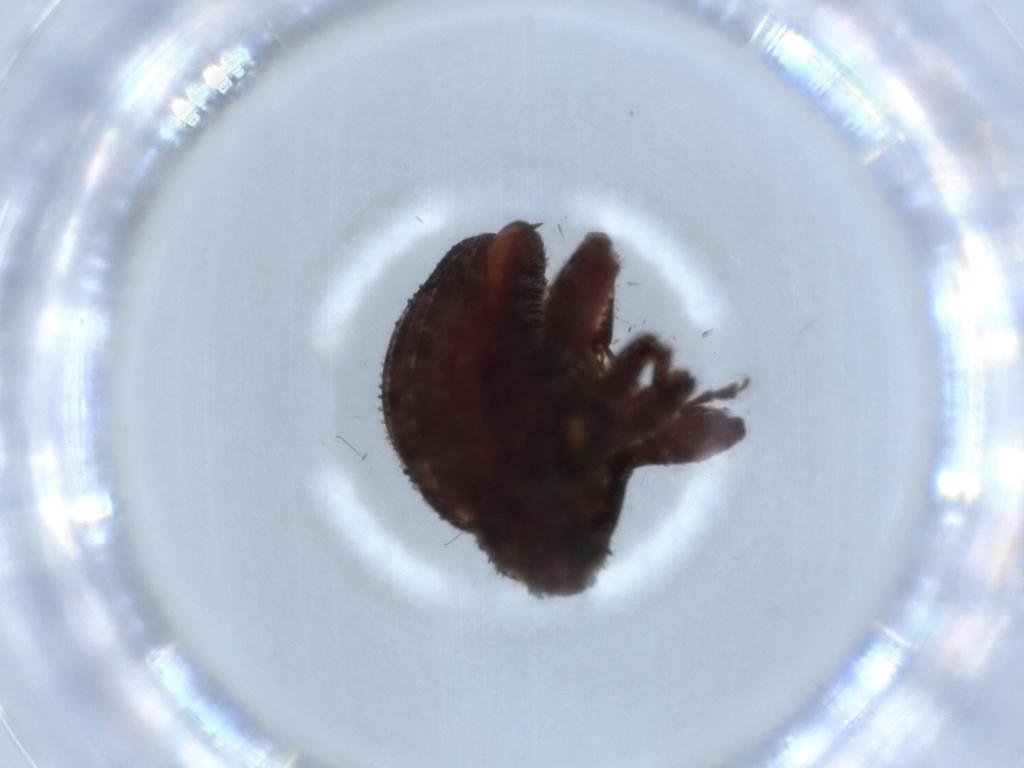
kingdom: Animalia
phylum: Arthropoda
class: Insecta
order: Coleoptera
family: Curculionidae
